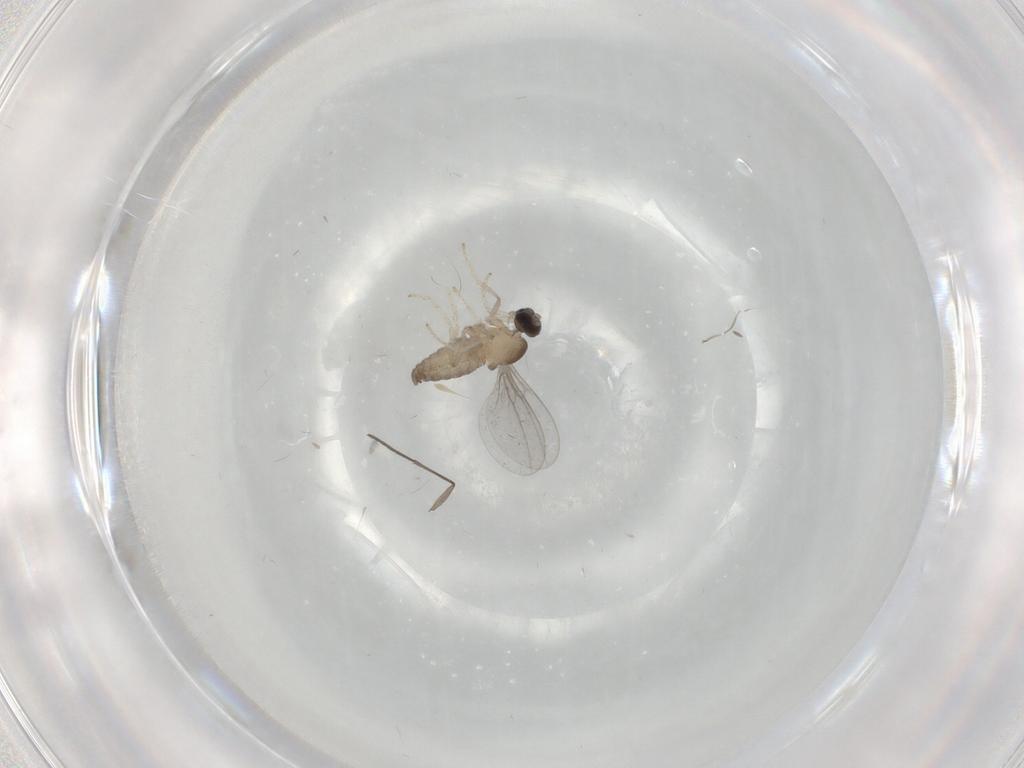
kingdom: Animalia
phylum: Arthropoda
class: Insecta
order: Diptera
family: Cecidomyiidae
